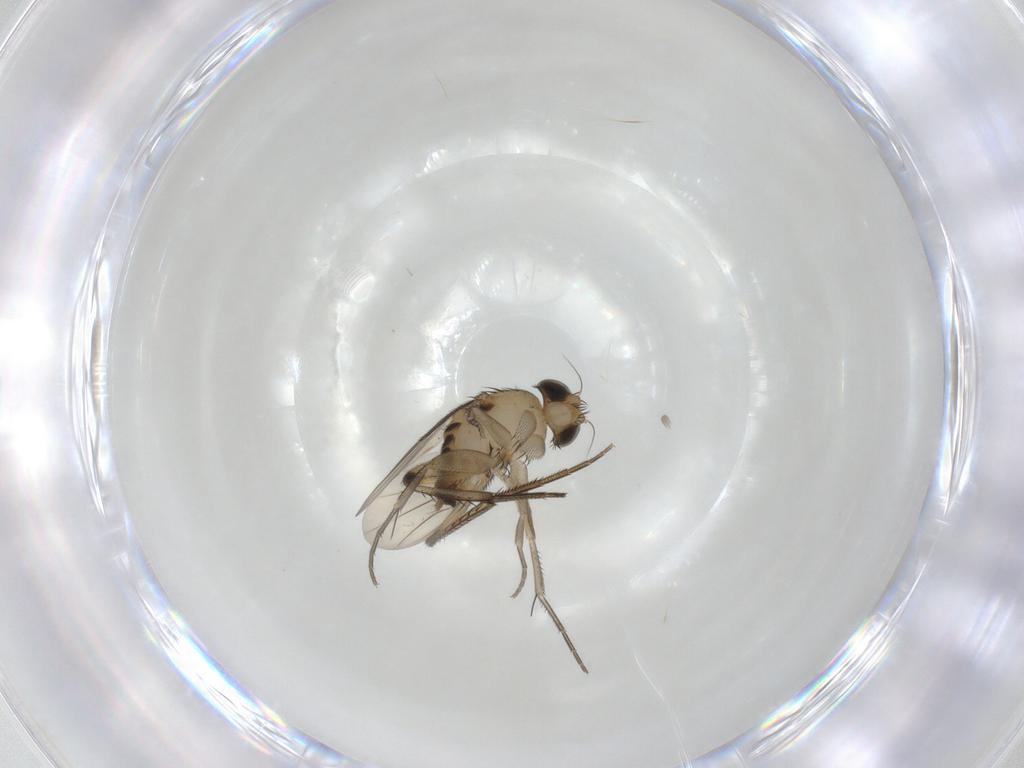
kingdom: Animalia
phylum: Arthropoda
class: Insecta
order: Diptera
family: Phoridae
